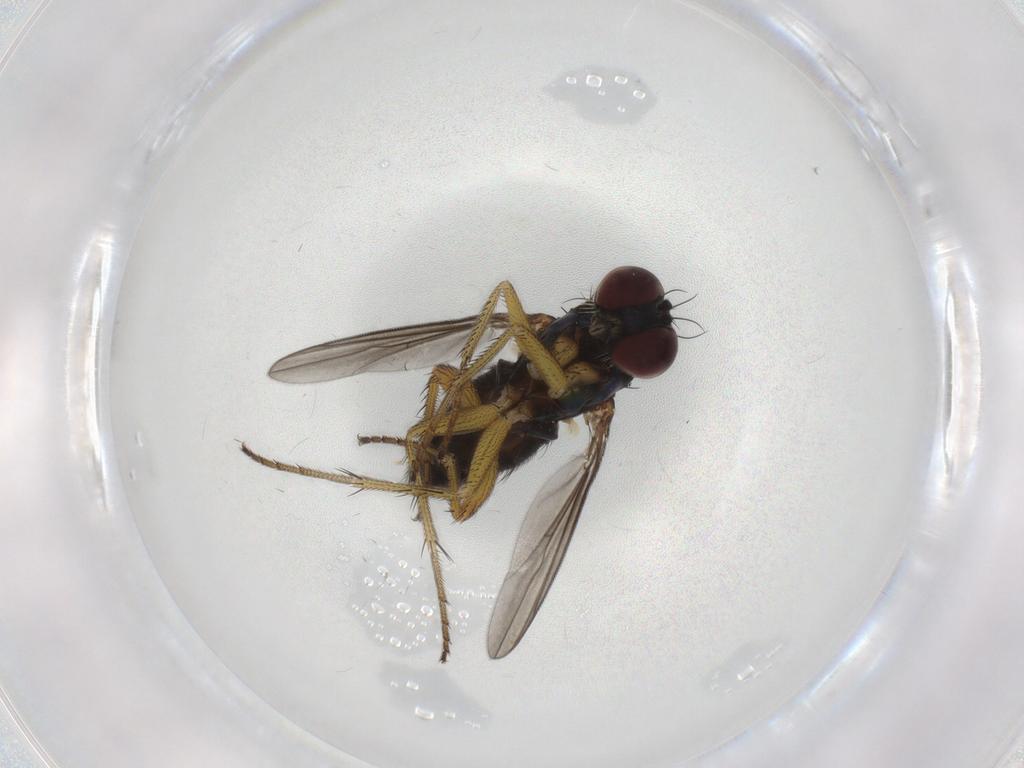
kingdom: Animalia
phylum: Arthropoda
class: Insecta
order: Diptera
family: Dolichopodidae
